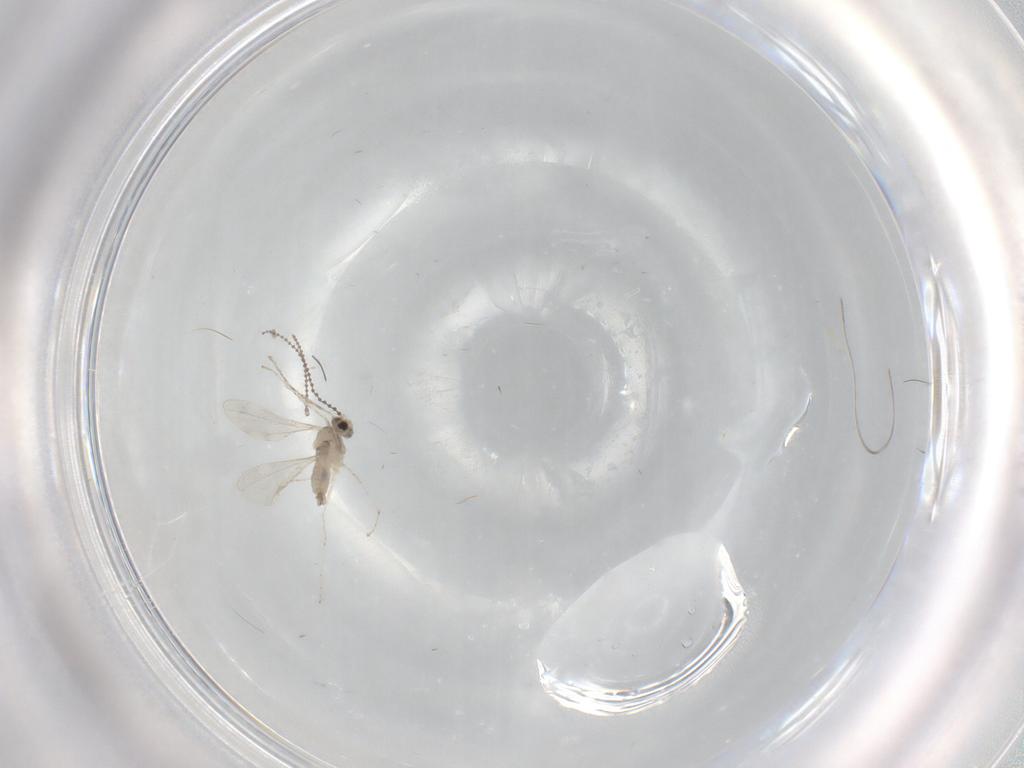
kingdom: Animalia
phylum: Arthropoda
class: Insecta
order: Diptera
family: Cecidomyiidae
